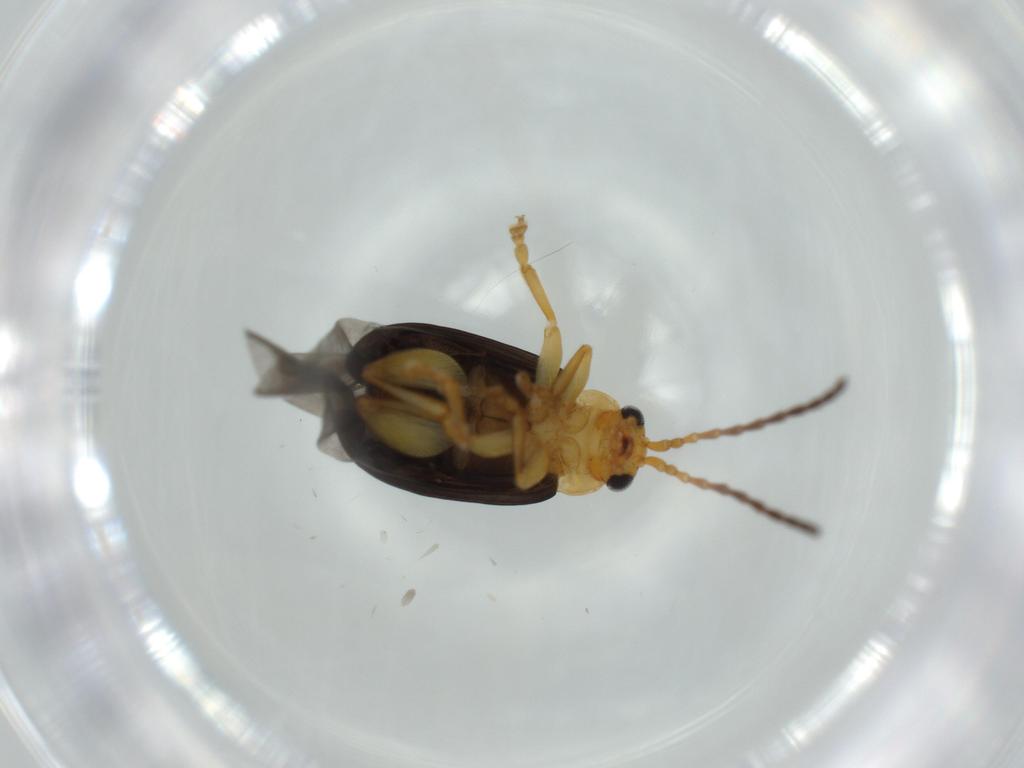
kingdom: Animalia
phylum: Arthropoda
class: Insecta
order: Coleoptera
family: Chrysomelidae
